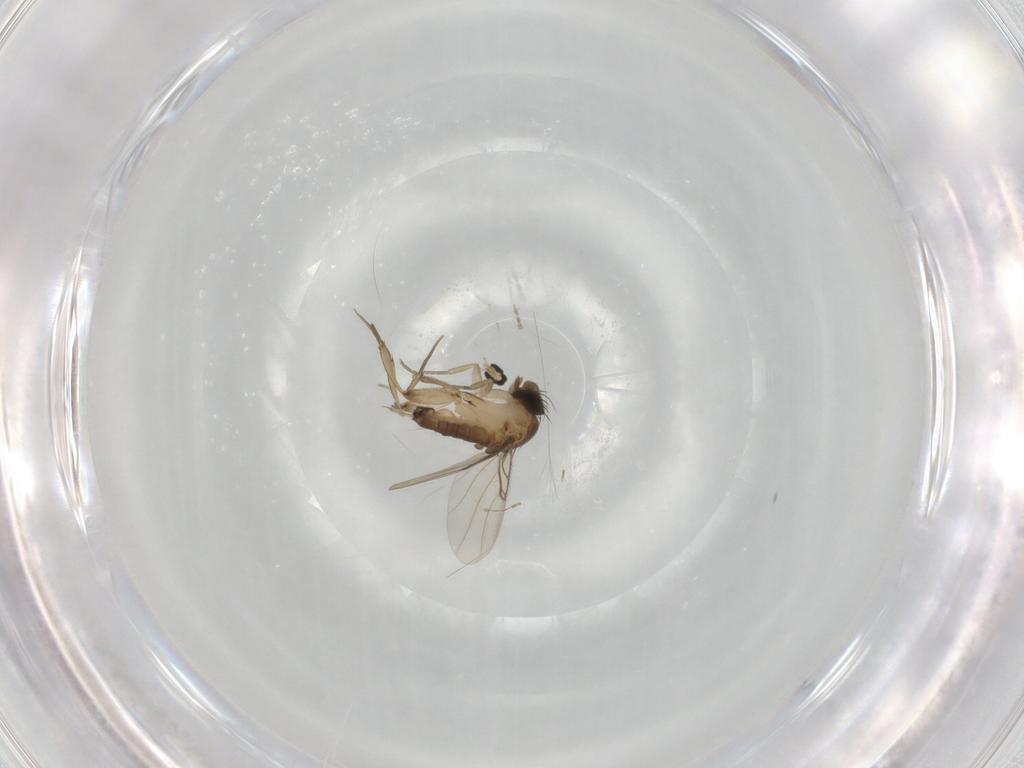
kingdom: Animalia
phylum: Arthropoda
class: Insecta
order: Diptera
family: Phoridae
